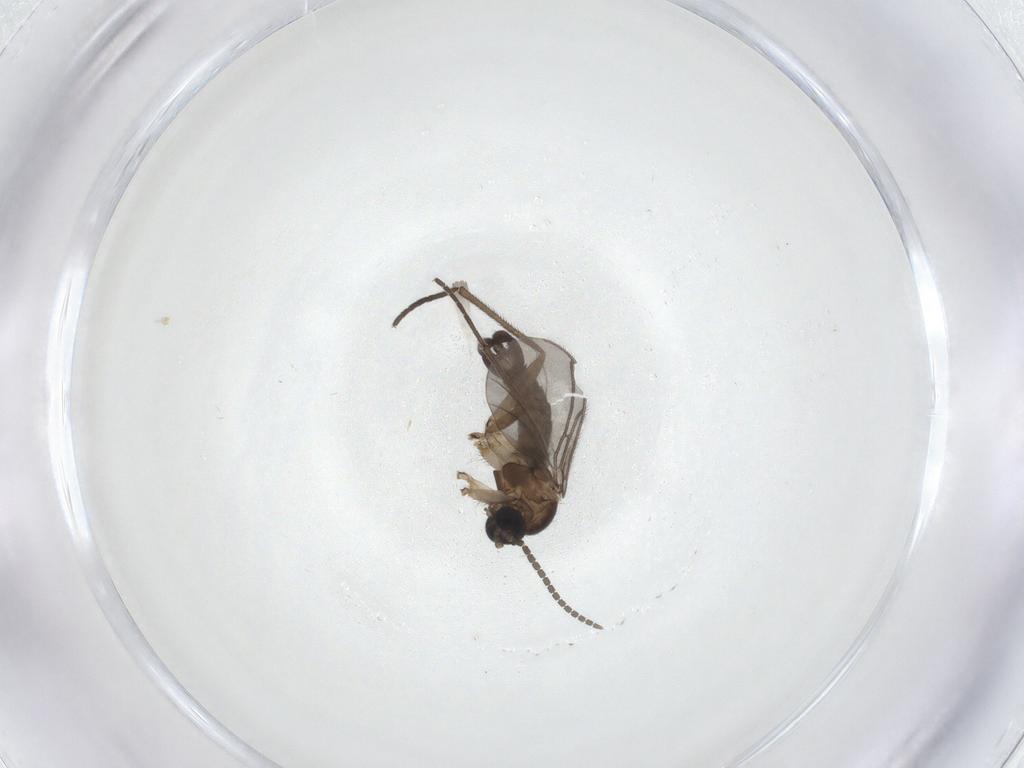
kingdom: Animalia
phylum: Arthropoda
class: Insecta
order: Diptera
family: Sciaridae
